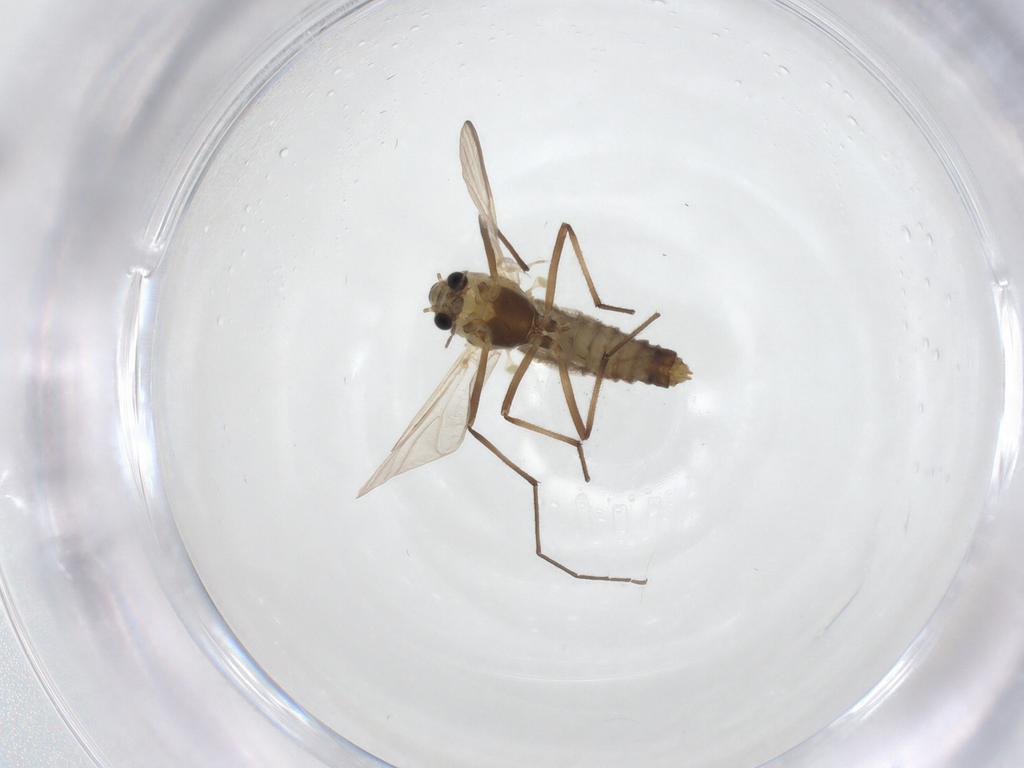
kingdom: Animalia
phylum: Arthropoda
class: Insecta
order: Diptera
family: Chironomidae
